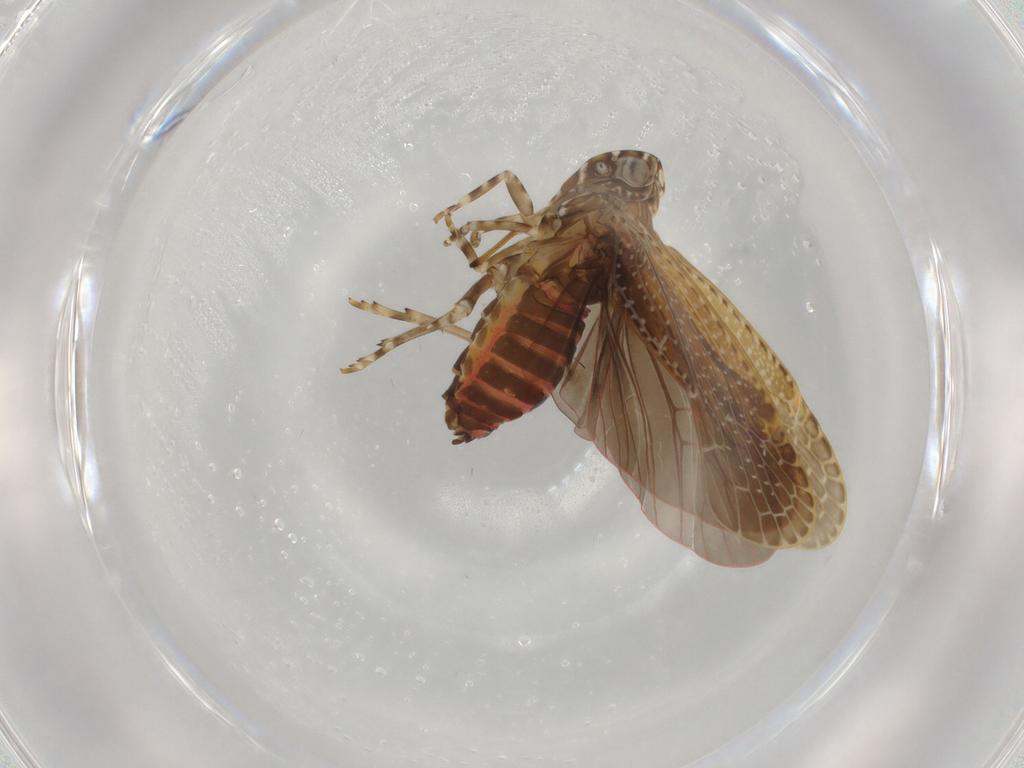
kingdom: Animalia
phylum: Arthropoda
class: Insecta
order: Hemiptera
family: Achilidae
